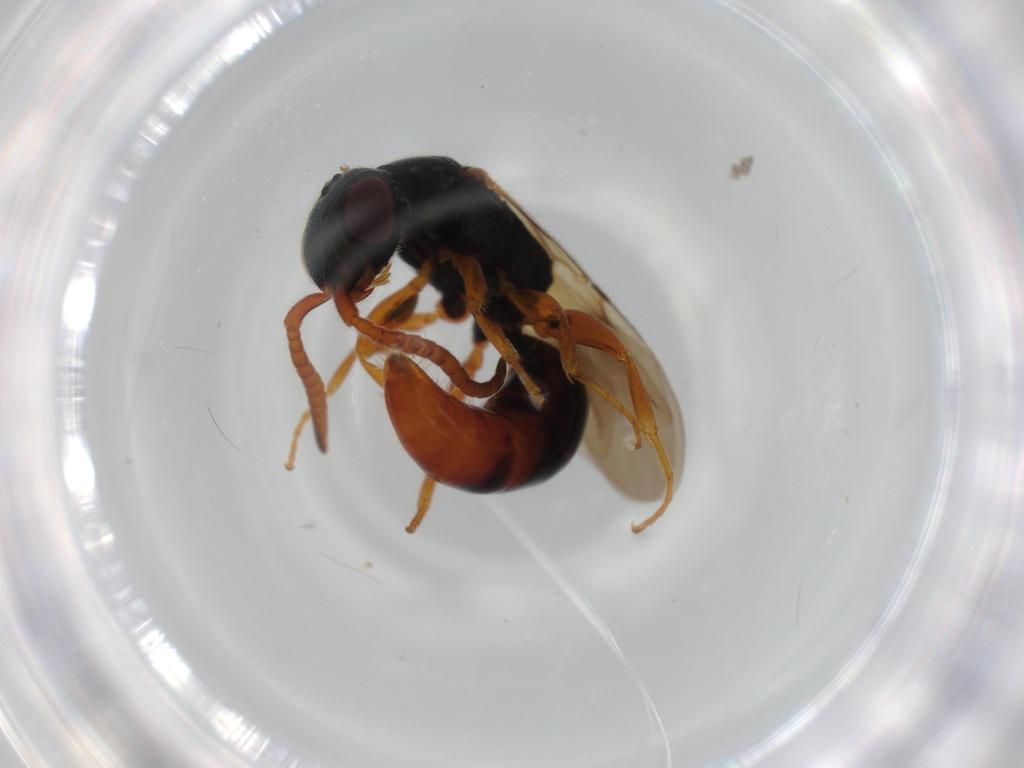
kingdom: Animalia
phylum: Arthropoda
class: Insecta
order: Hymenoptera
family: Bethylidae
